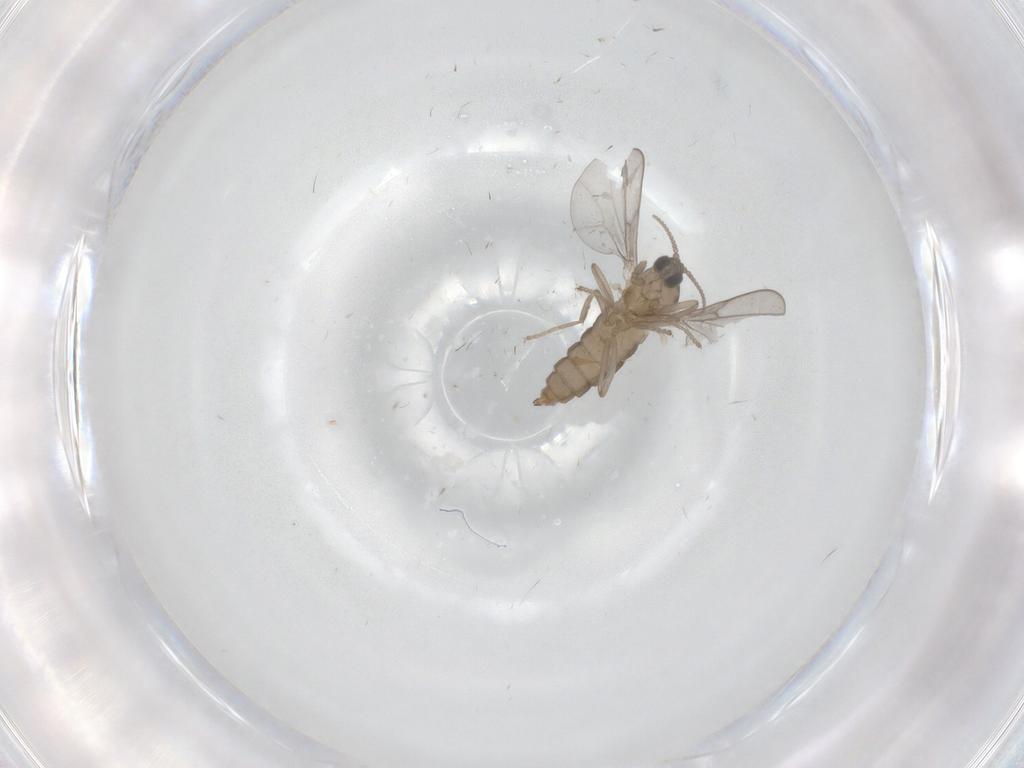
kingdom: Animalia
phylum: Arthropoda
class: Insecta
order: Diptera
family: Cecidomyiidae
